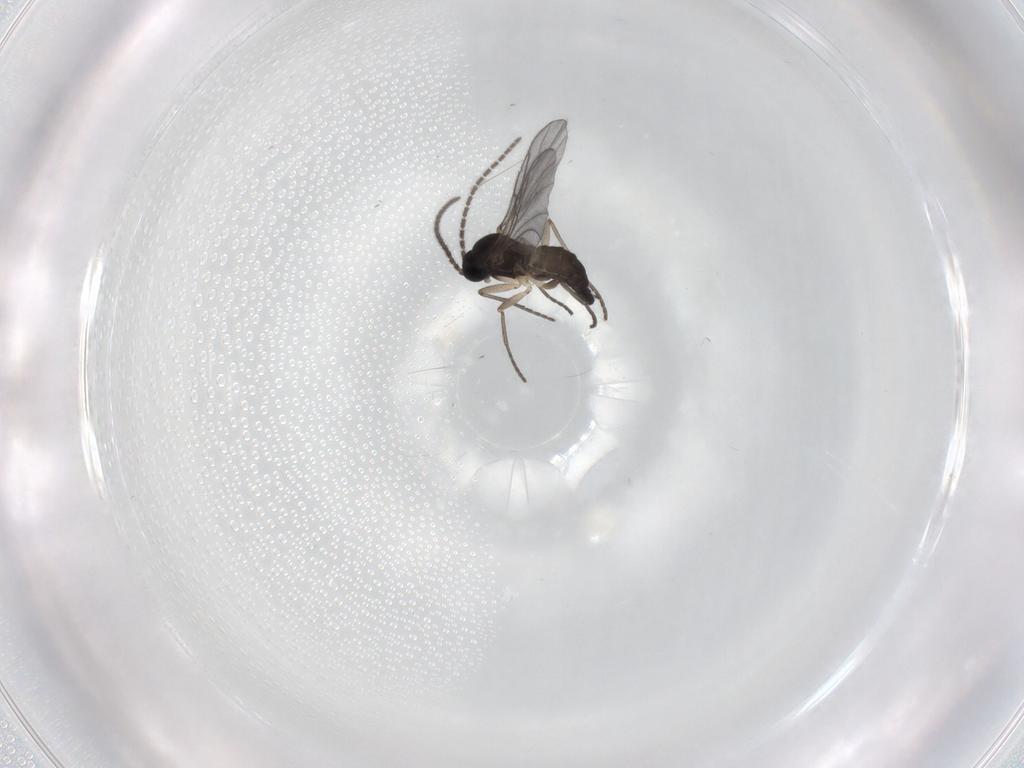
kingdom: Animalia
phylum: Arthropoda
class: Insecta
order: Diptera
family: Sciaridae
